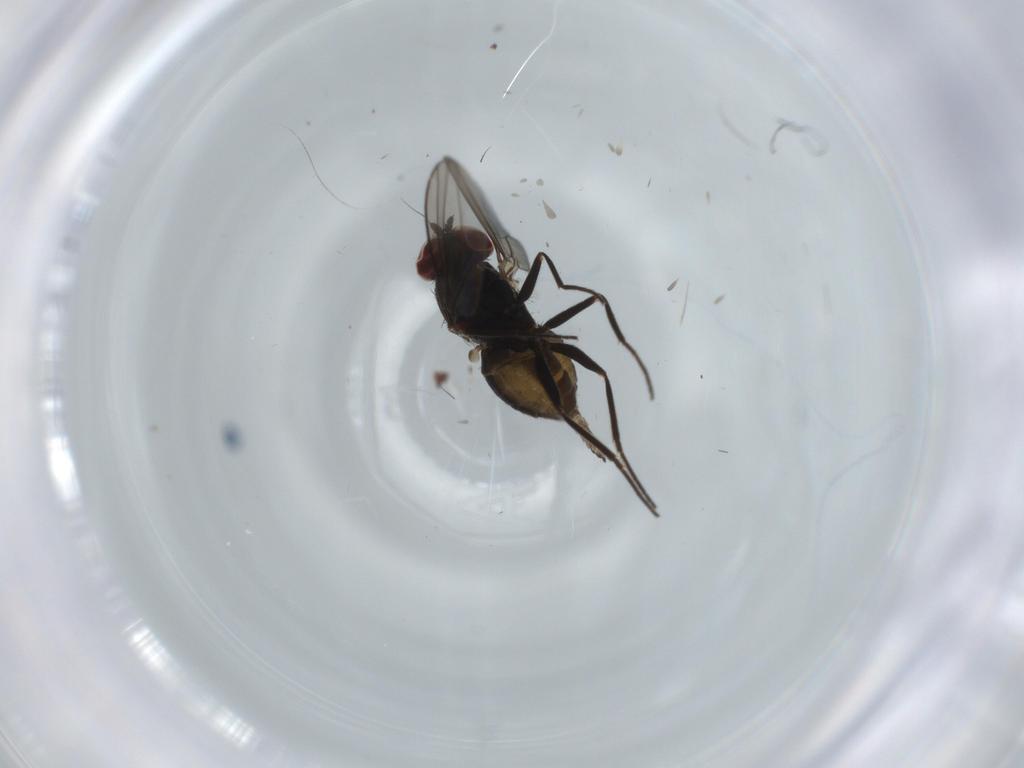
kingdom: Animalia
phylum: Arthropoda
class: Insecta
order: Diptera
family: Dolichopodidae
